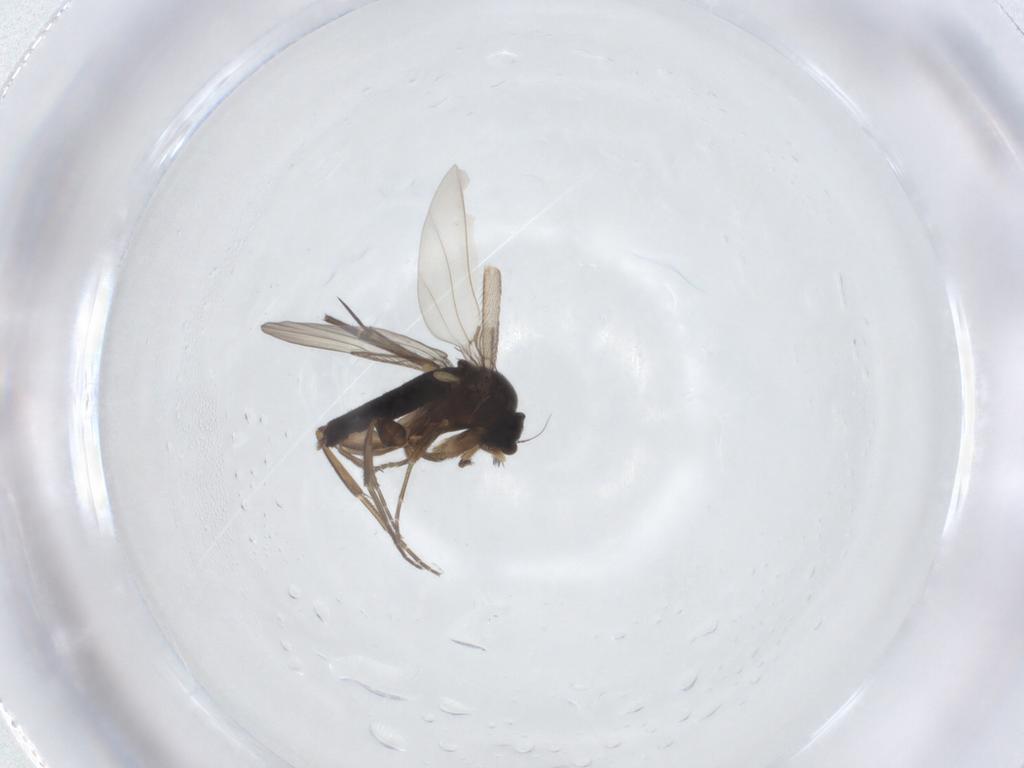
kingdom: Animalia
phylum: Arthropoda
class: Insecta
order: Diptera
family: Phoridae
